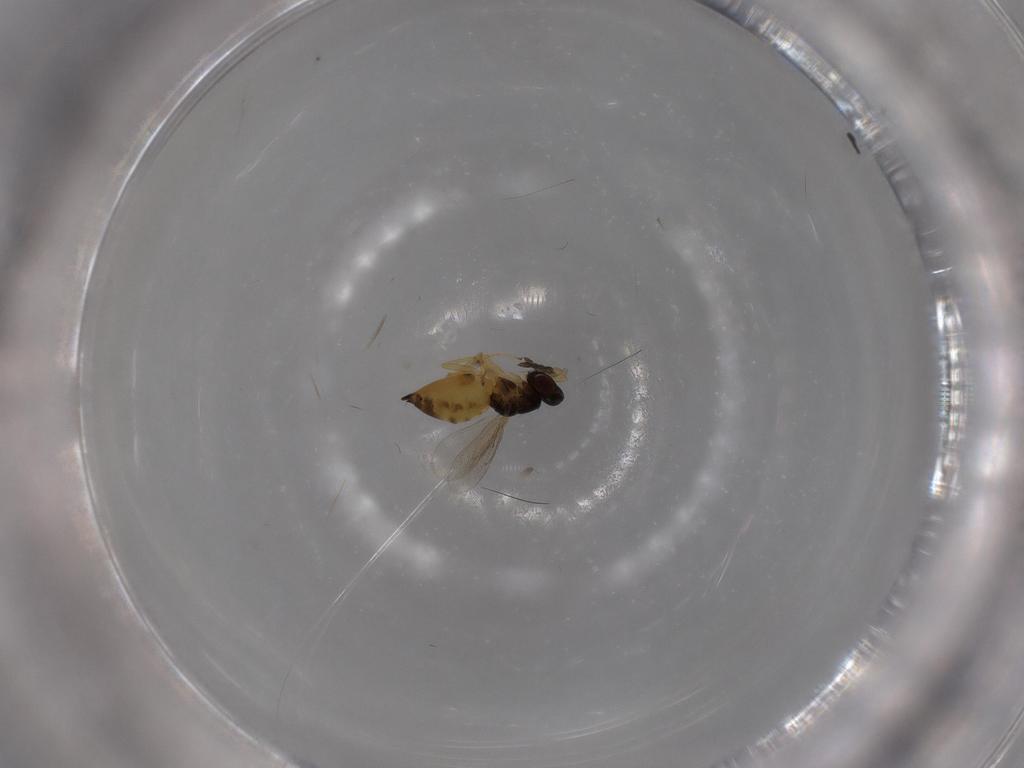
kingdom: Animalia
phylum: Arthropoda
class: Insecta
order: Hymenoptera
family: Eulophidae
